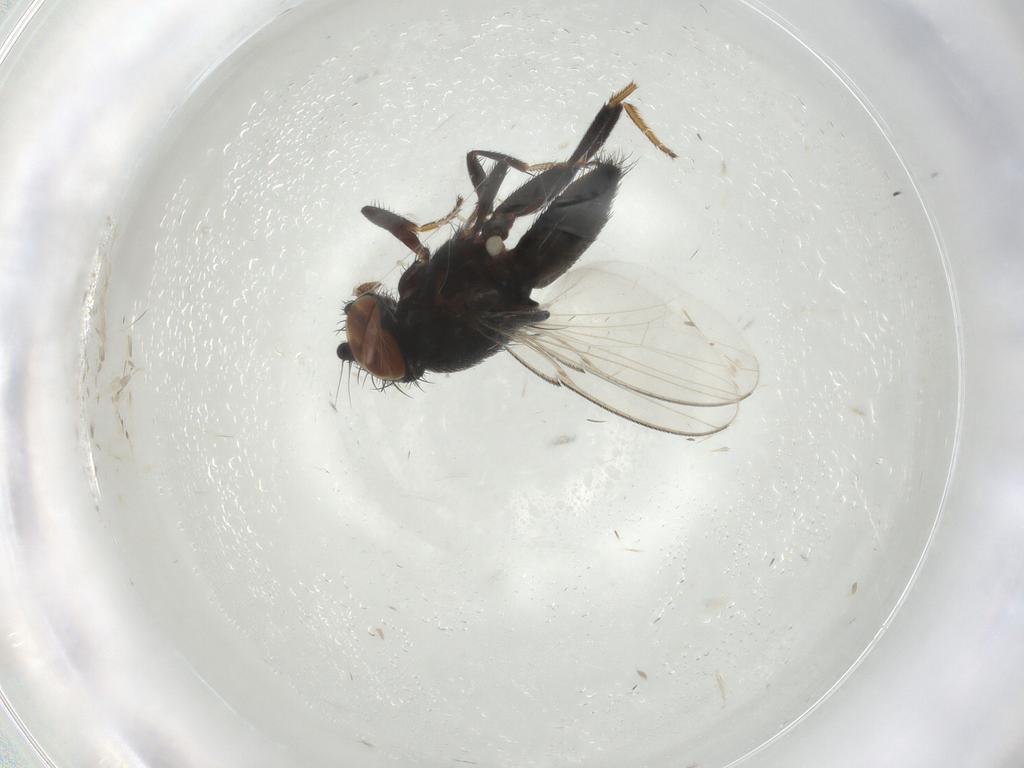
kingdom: Animalia
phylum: Arthropoda
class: Insecta
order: Diptera
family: Milichiidae
